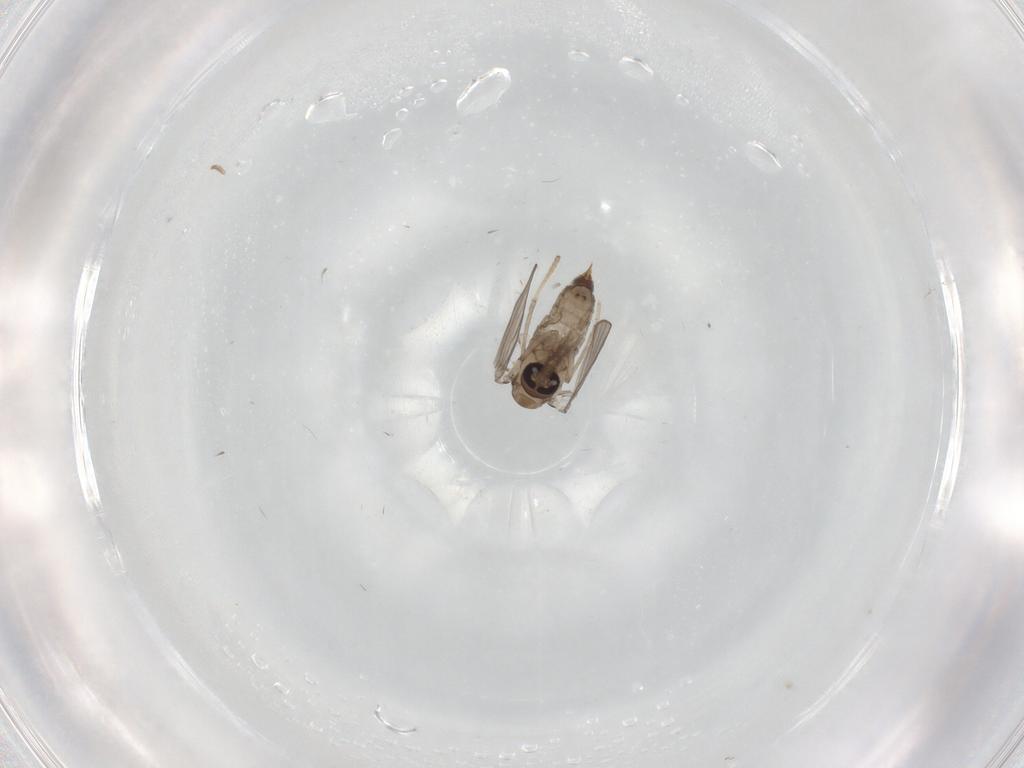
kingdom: Animalia
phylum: Arthropoda
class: Insecta
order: Diptera
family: Psychodidae
